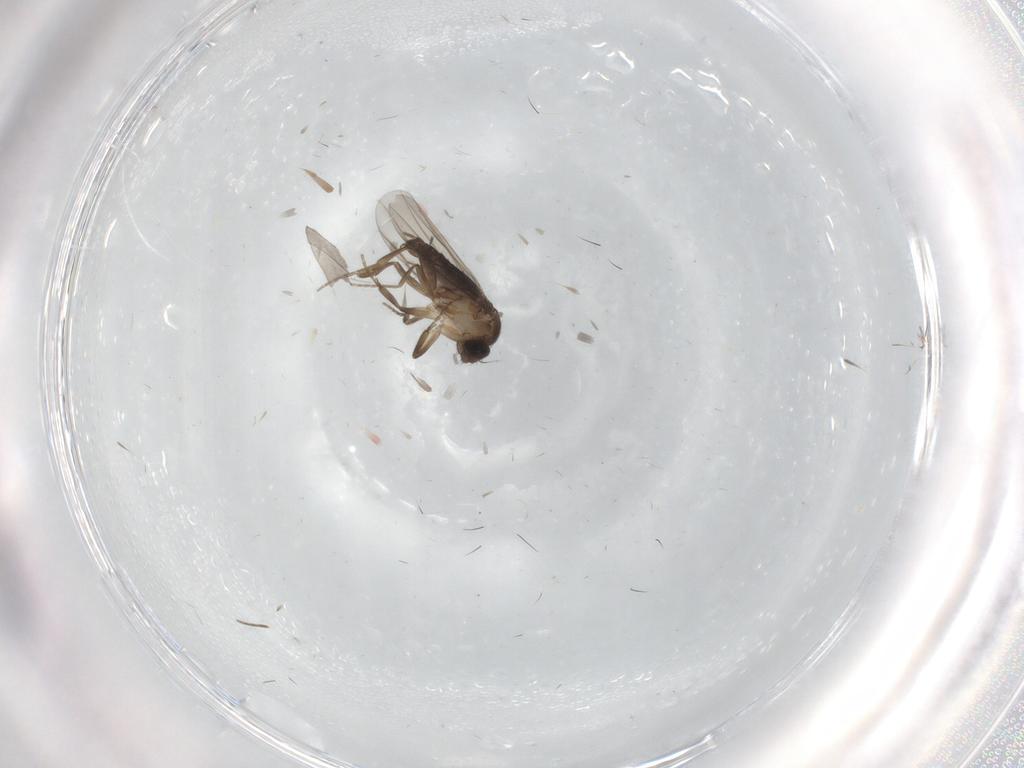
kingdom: Animalia
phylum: Arthropoda
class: Insecta
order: Diptera
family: Phoridae
